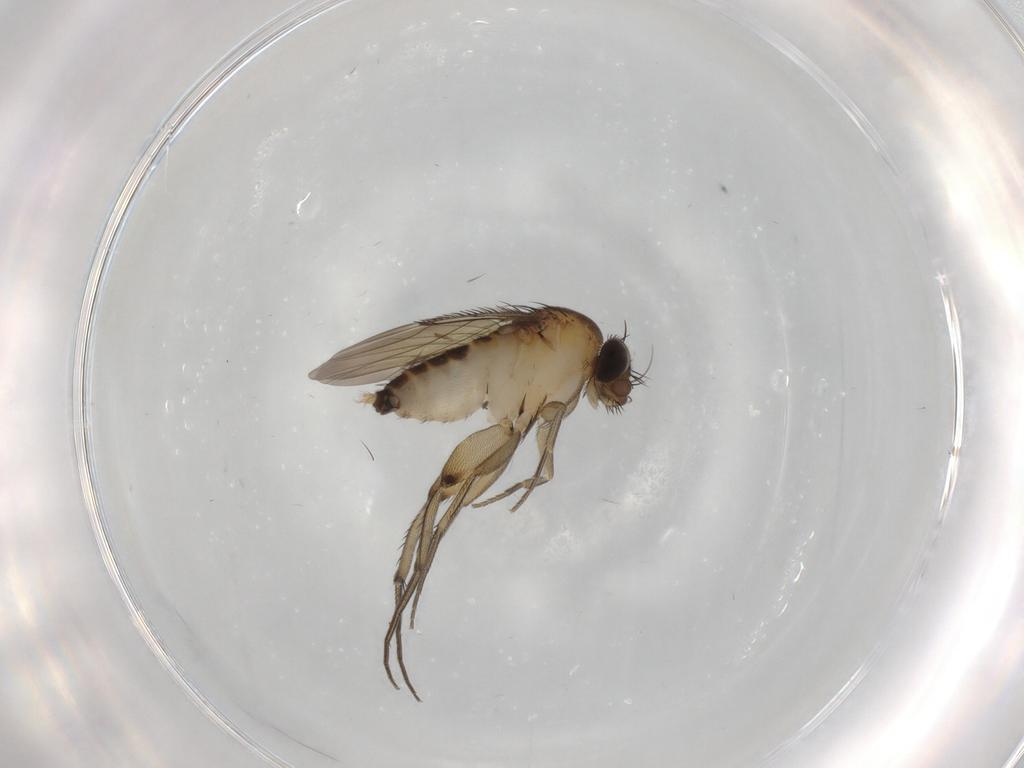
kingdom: Animalia
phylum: Arthropoda
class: Insecta
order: Diptera
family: Phoridae
